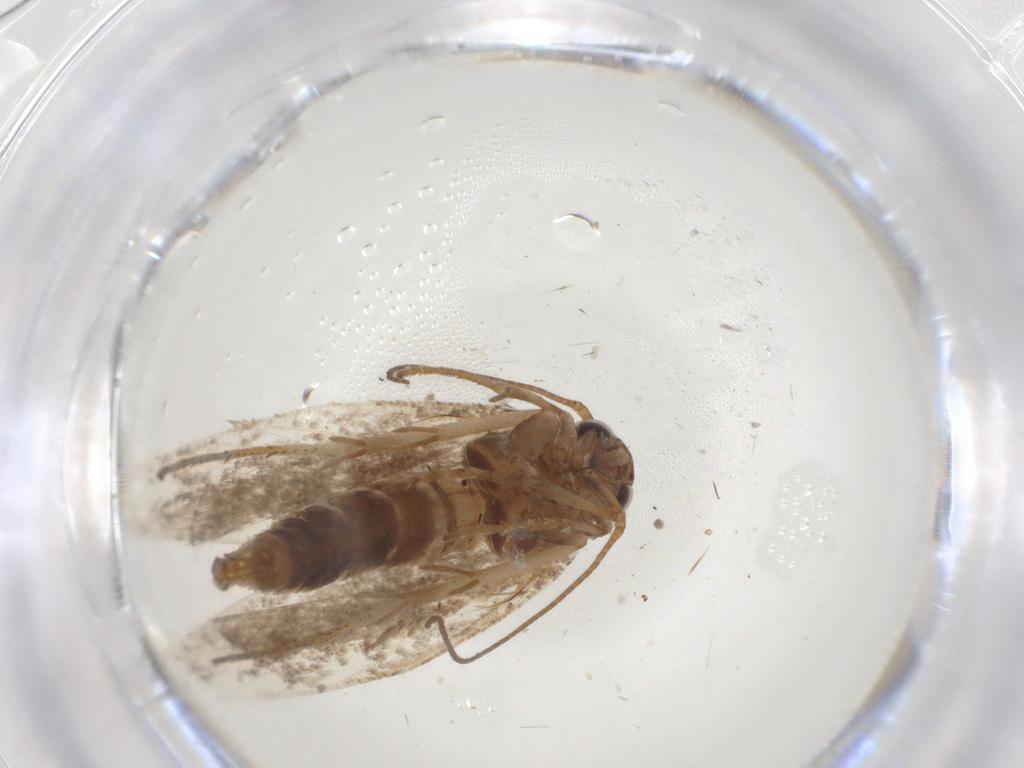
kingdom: Animalia
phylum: Arthropoda
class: Insecta
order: Lepidoptera
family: Gelechiidae
